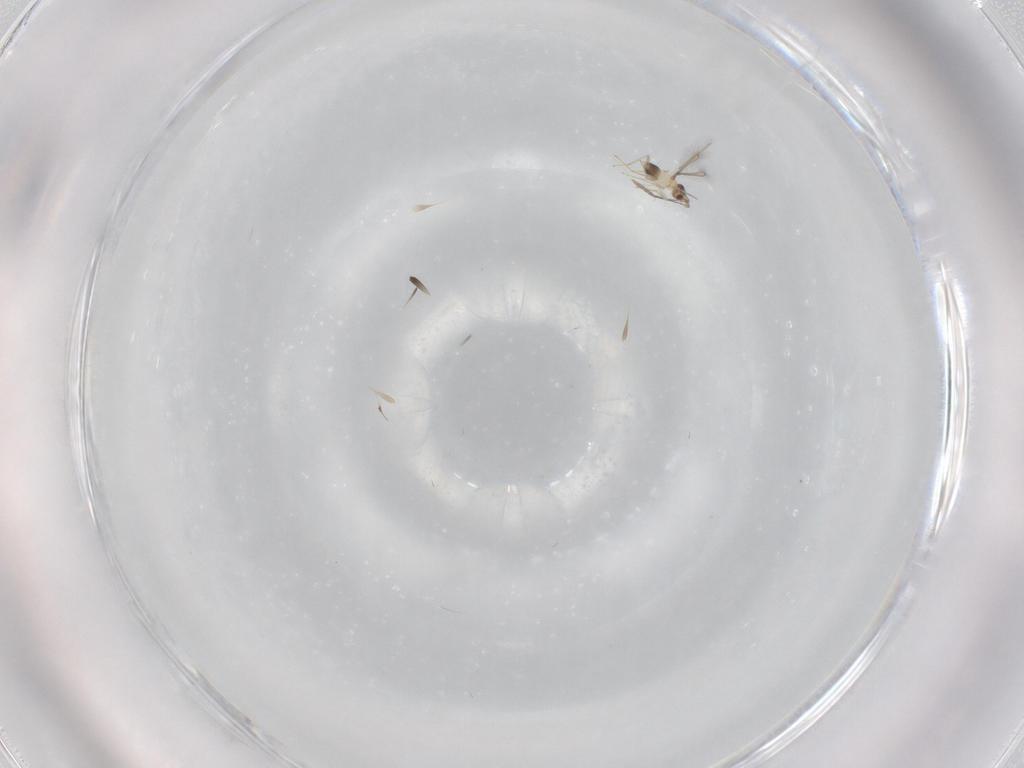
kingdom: Animalia
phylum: Arthropoda
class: Insecta
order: Hymenoptera
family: Mymaridae
